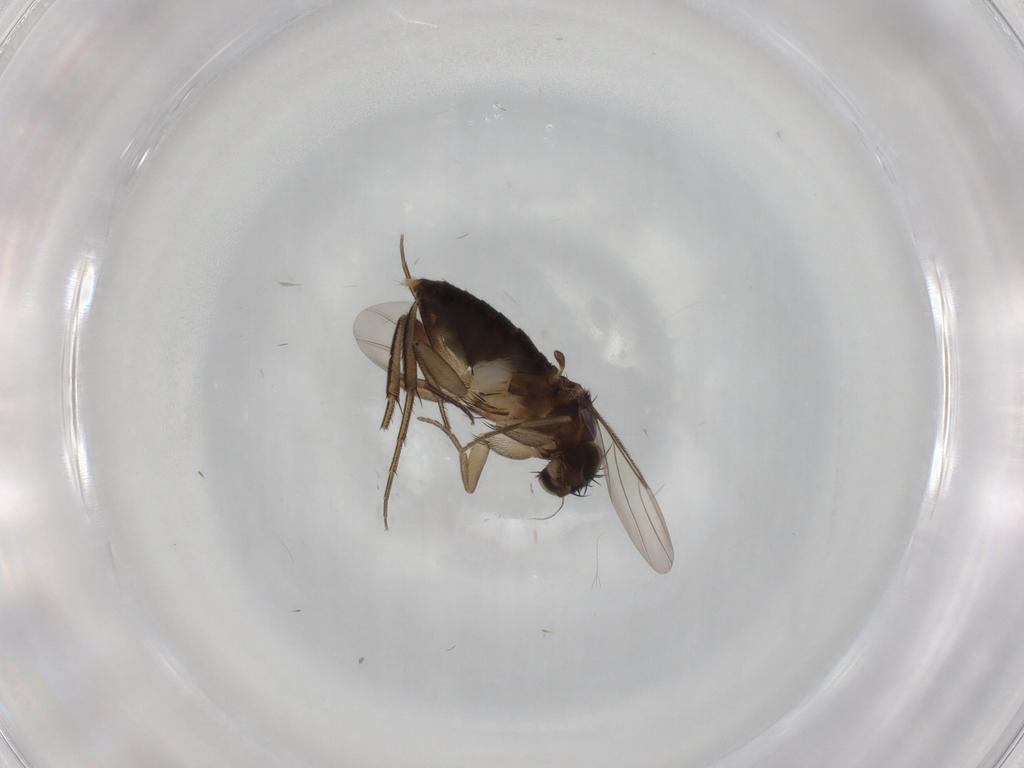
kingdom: Animalia
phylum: Arthropoda
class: Insecta
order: Diptera
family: Phoridae
